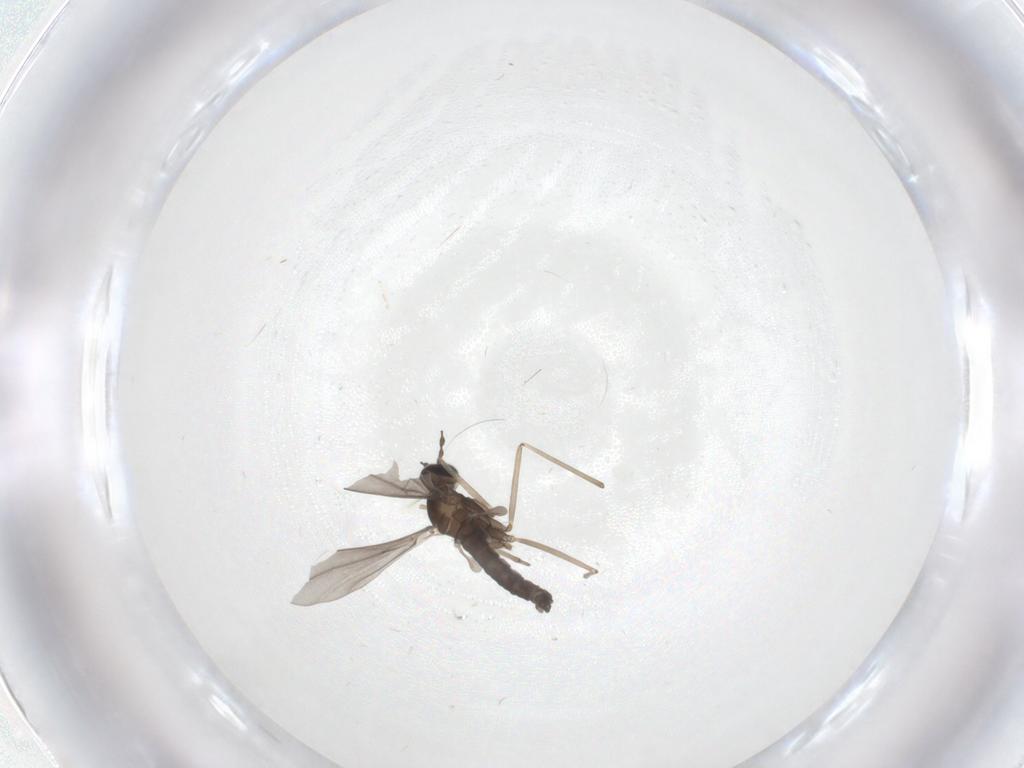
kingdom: Animalia
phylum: Arthropoda
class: Insecta
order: Diptera
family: Cecidomyiidae
